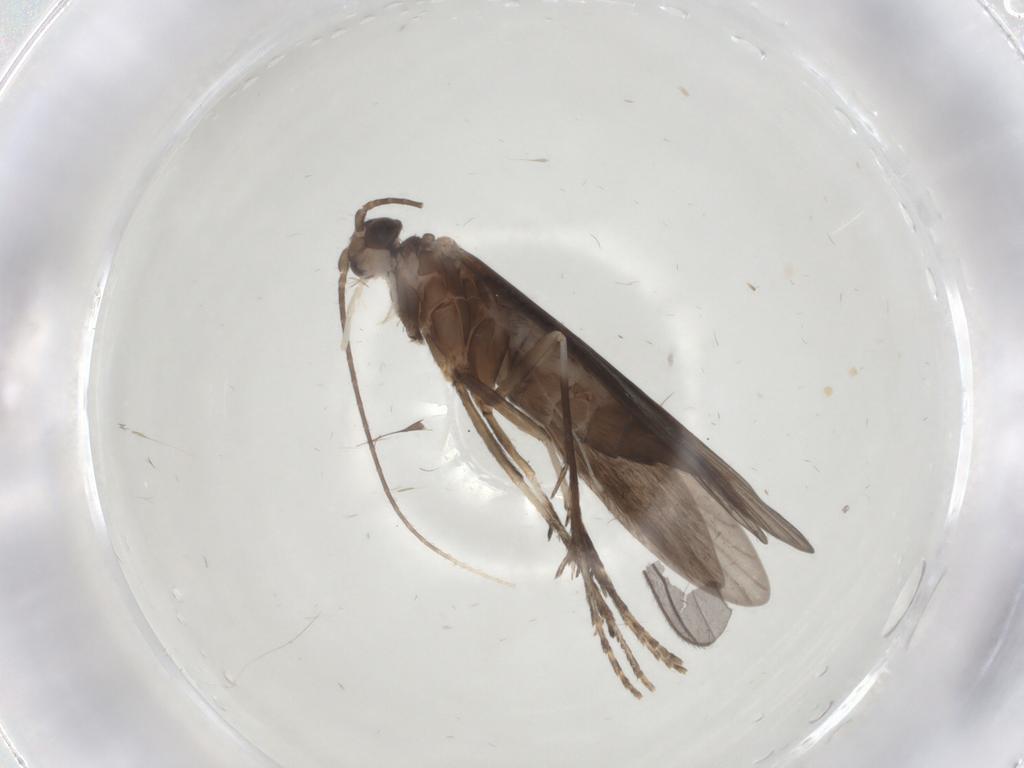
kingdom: Animalia
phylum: Arthropoda
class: Insecta
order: Trichoptera
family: Xiphocentronidae
